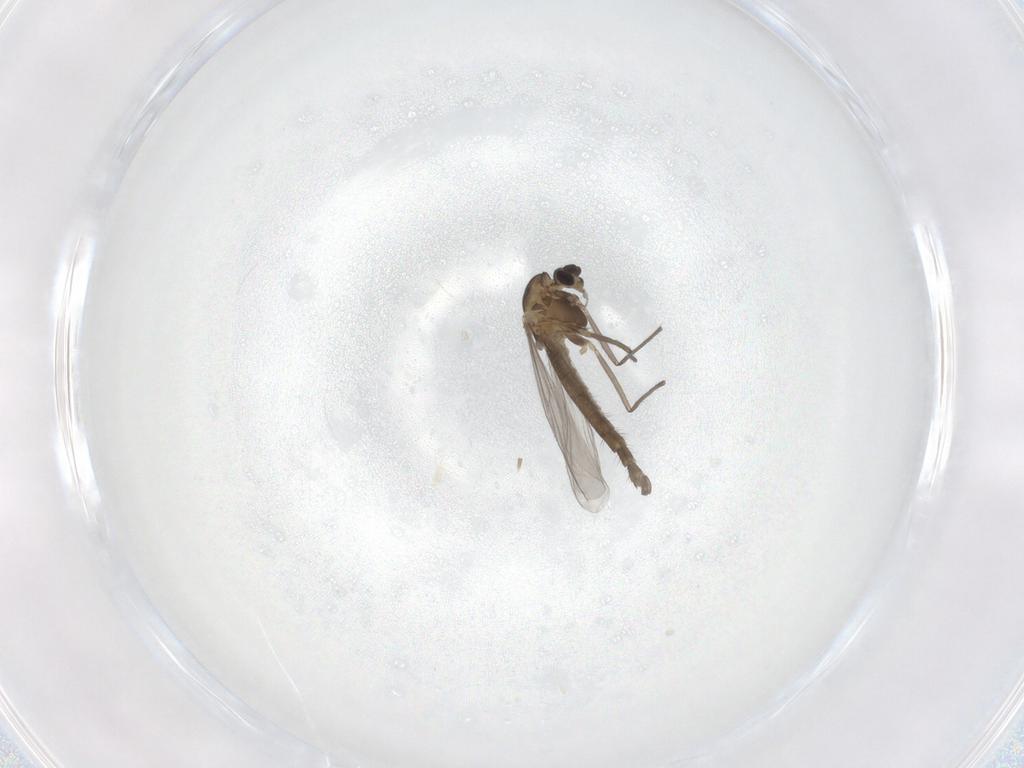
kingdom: Animalia
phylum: Arthropoda
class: Insecta
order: Diptera
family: Chironomidae
